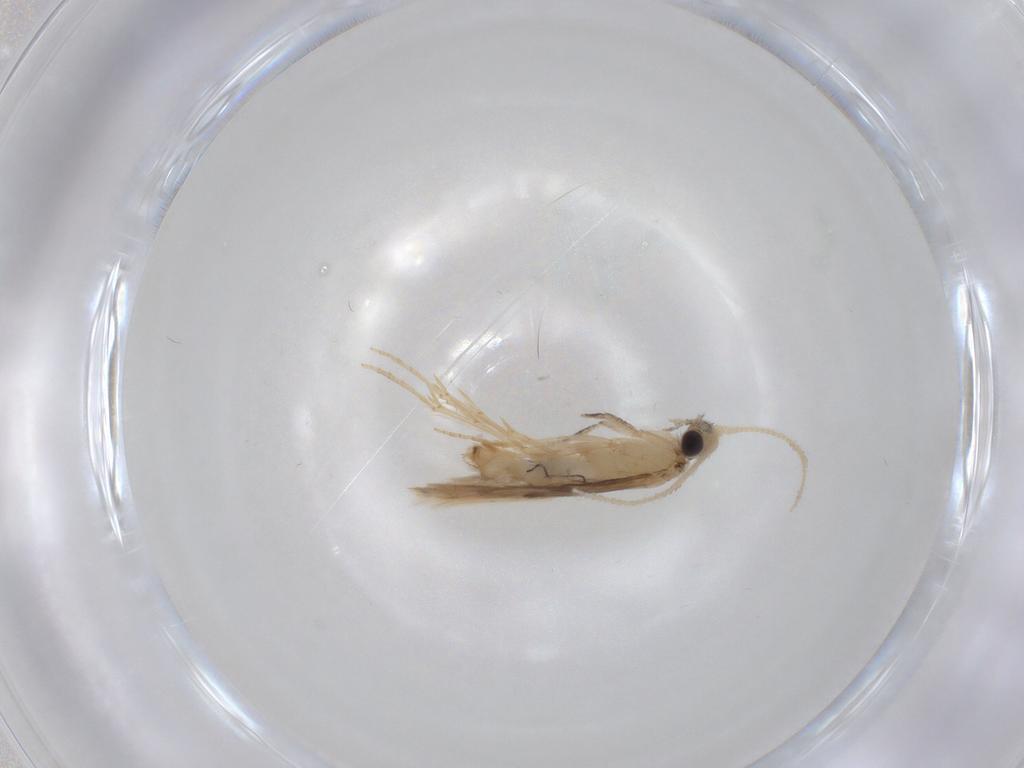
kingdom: Animalia
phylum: Arthropoda
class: Insecta
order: Trichoptera
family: Hydroptilidae
